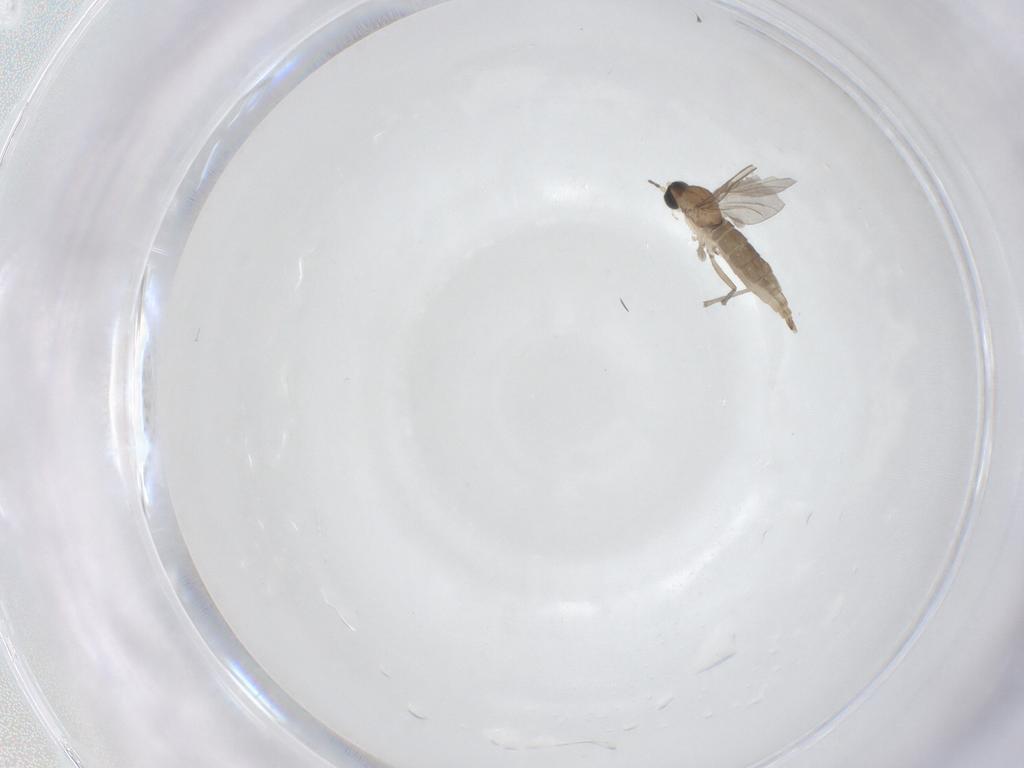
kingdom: Animalia
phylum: Arthropoda
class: Insecta
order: Diptera
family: Sciaridae
